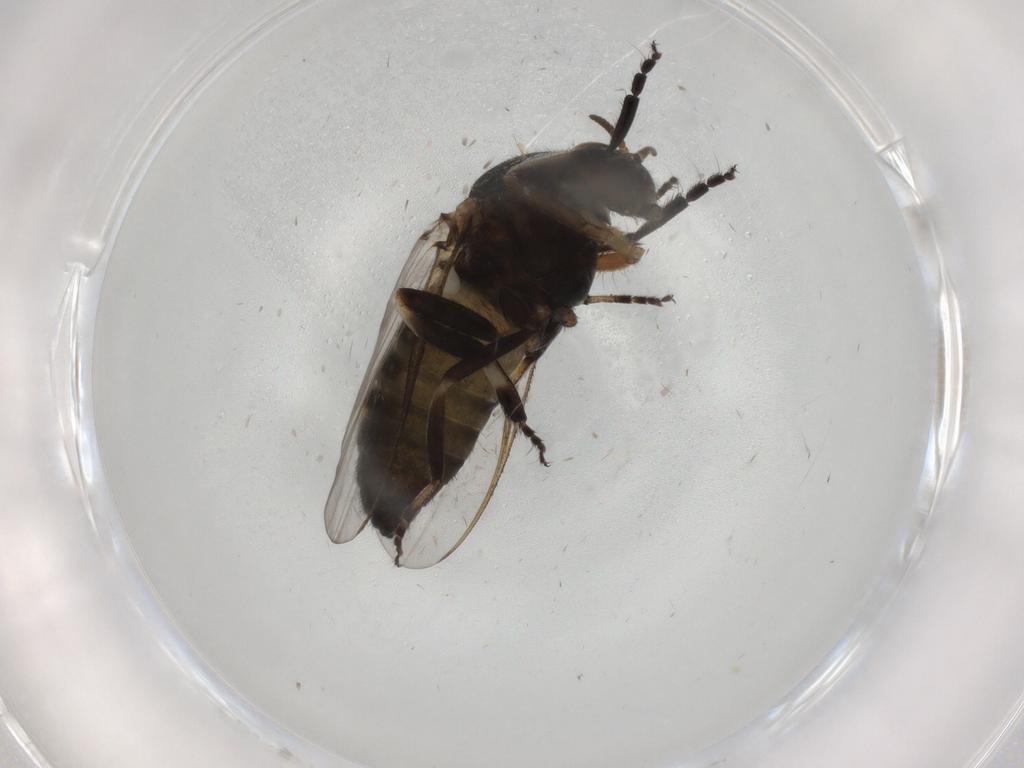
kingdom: Animalia
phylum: Arthropoda
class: Insecta
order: Diptera
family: Chironomidae
